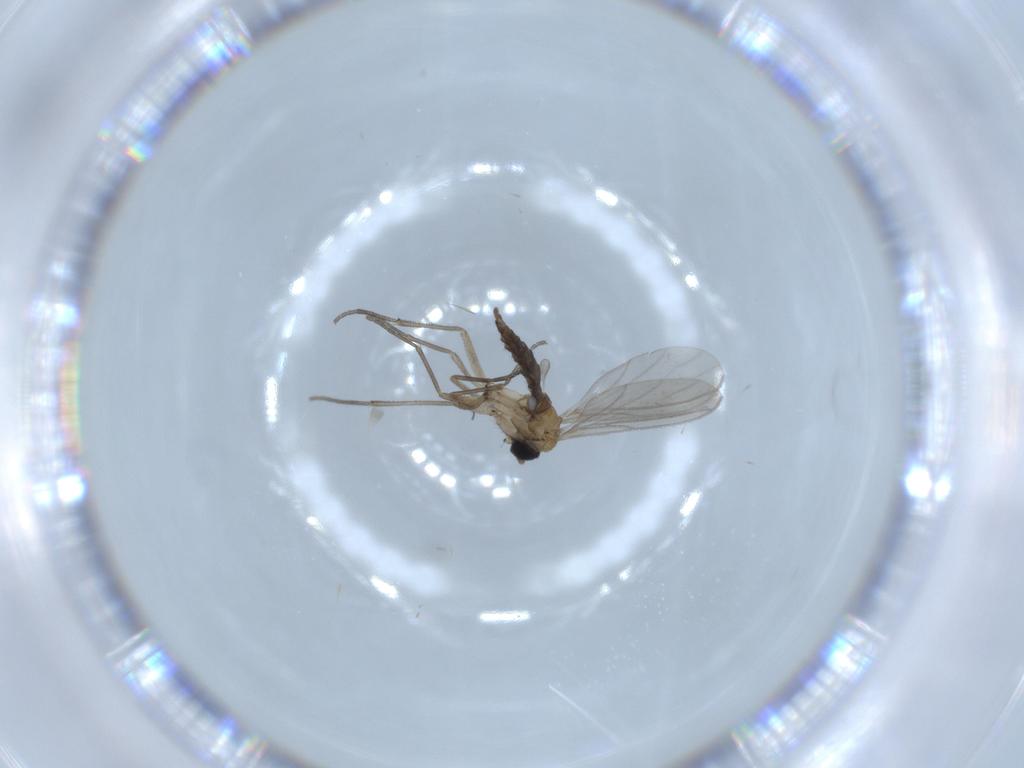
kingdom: Animalia
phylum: Arthropoda
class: Insecta
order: Diptera
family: Sciaridae
